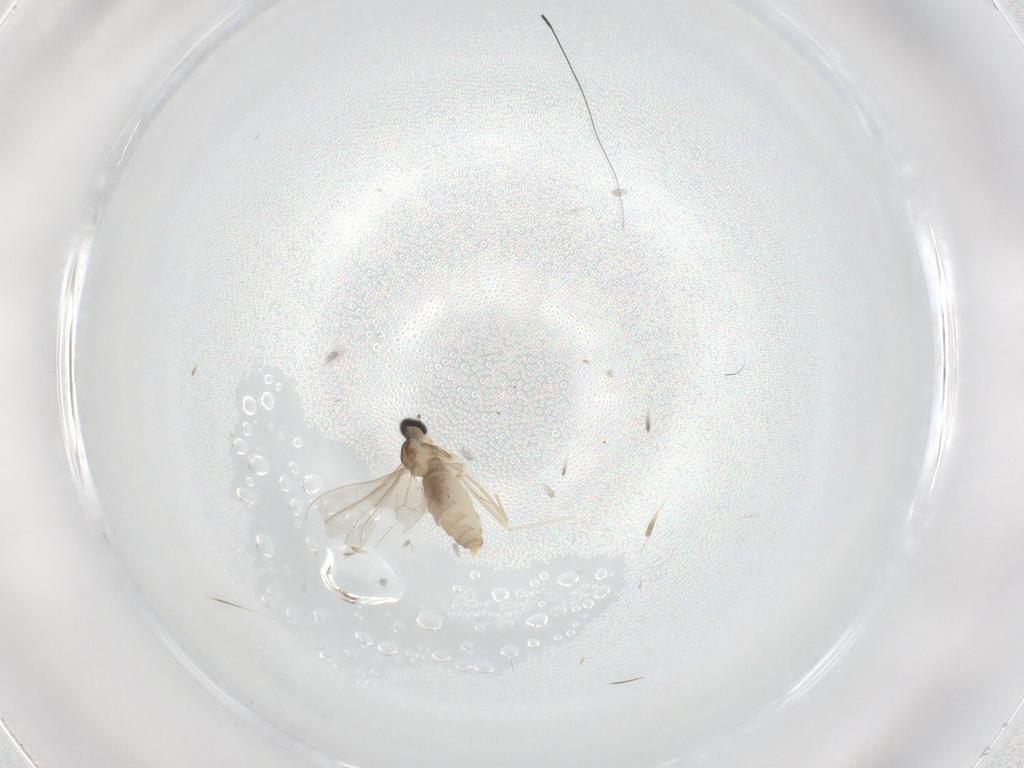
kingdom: Animalia
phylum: Arthropoda
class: Insecta
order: Diptera
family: Cecidomyiidae
